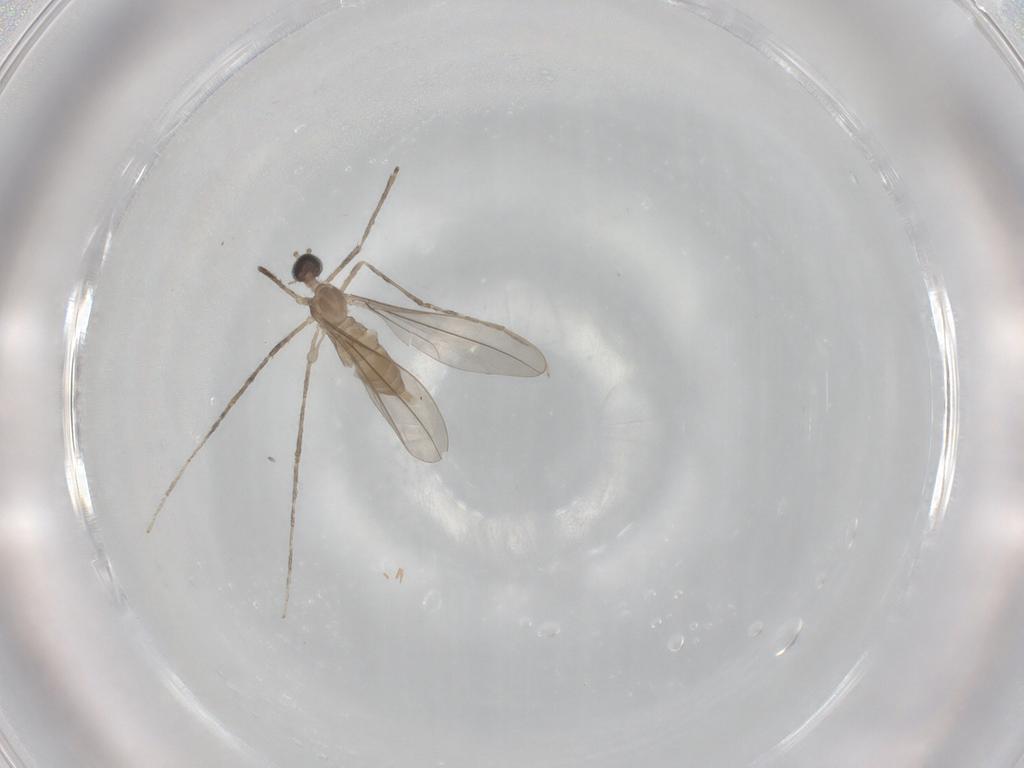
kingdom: Animalia
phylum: Arthropoda
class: Insecta
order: Diptera
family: Cecidomyiidae
